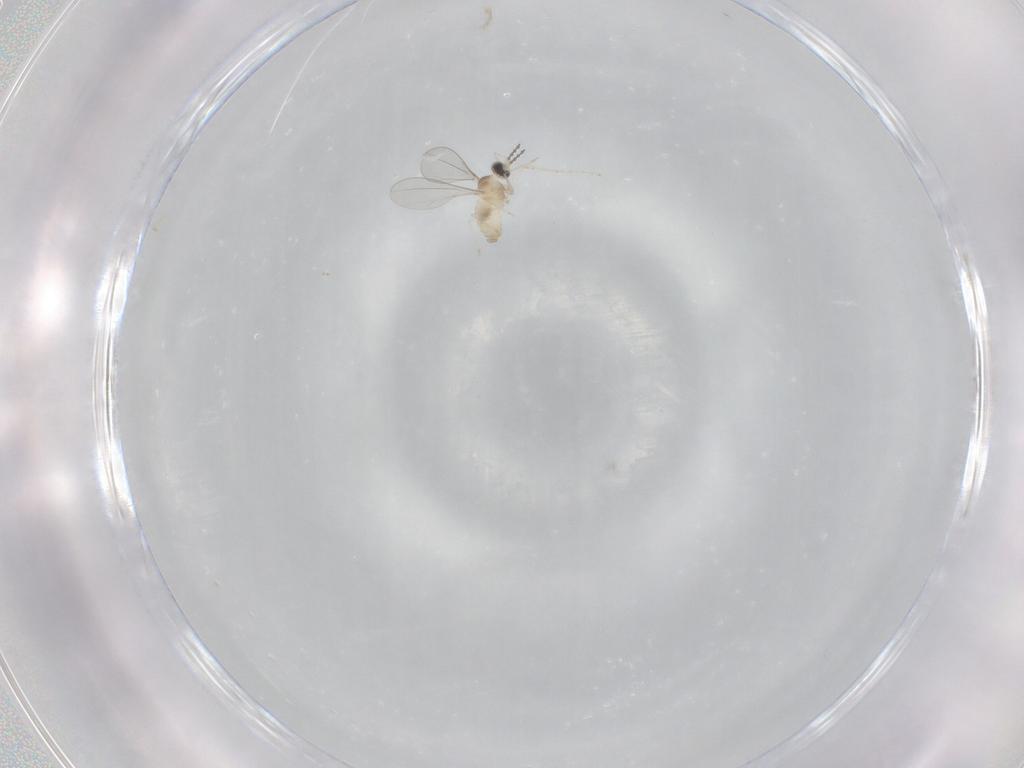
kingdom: Animalia
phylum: Arthropoda
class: Insecta
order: Diptera
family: Cecidomyiidae
